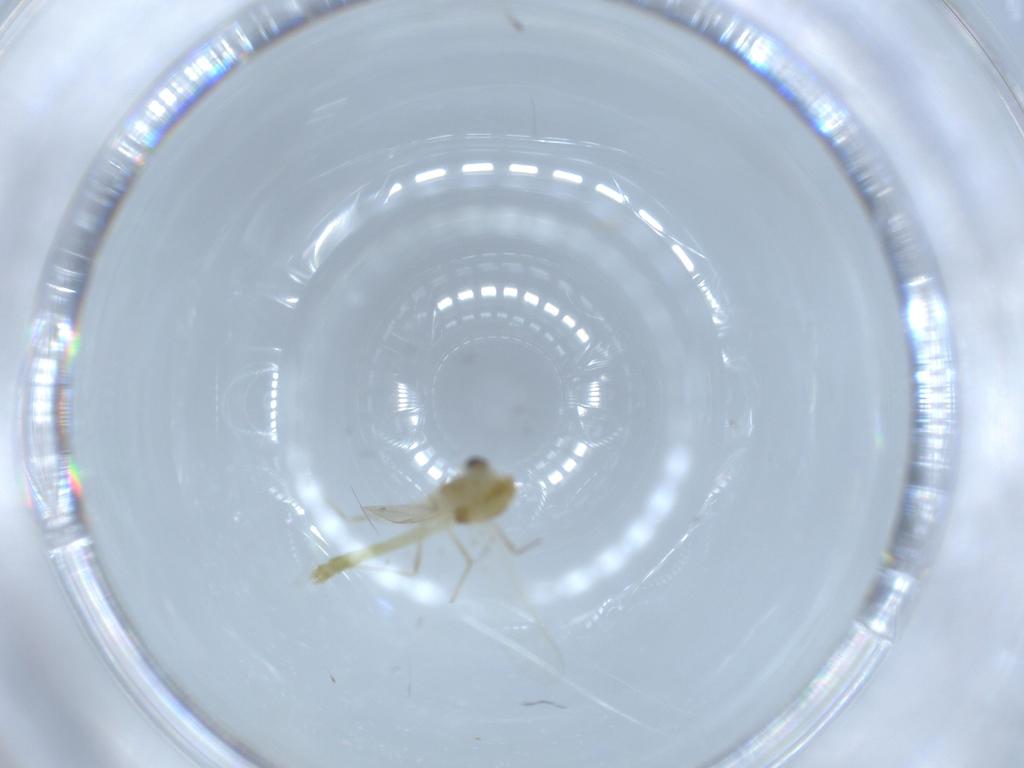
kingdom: Animalia
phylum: Arthropoda
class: Insecta
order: Diptera
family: Chironomidae
